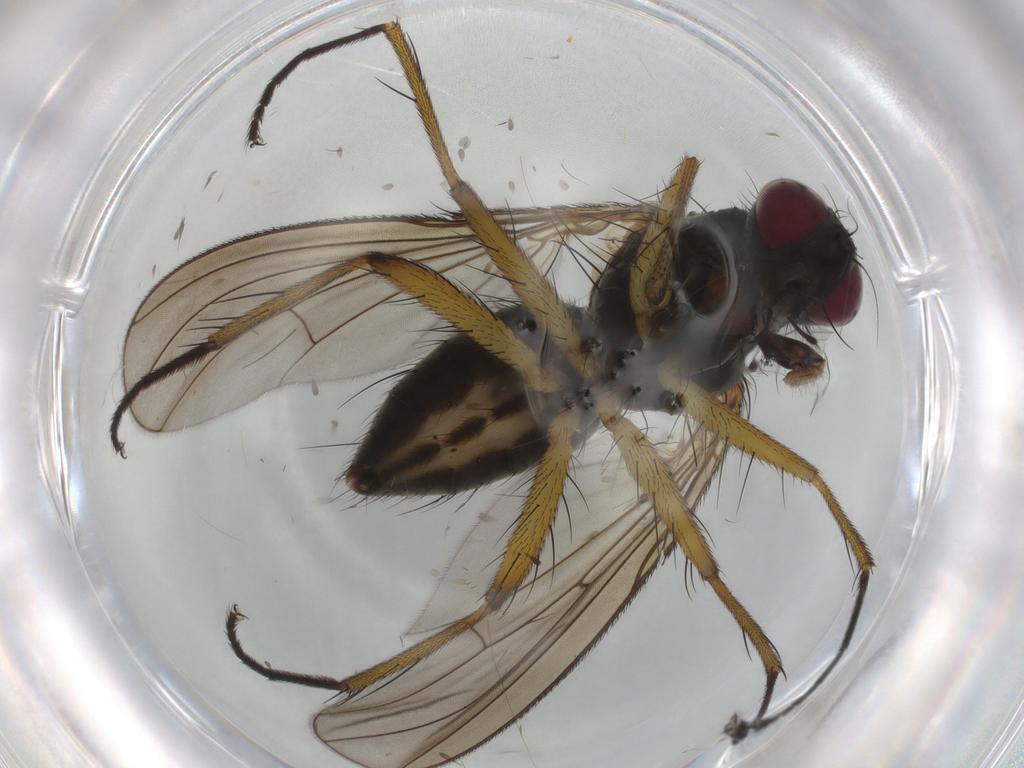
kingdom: Animalia
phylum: Arthropoda
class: Insecta
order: Diptera
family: Muscidae
